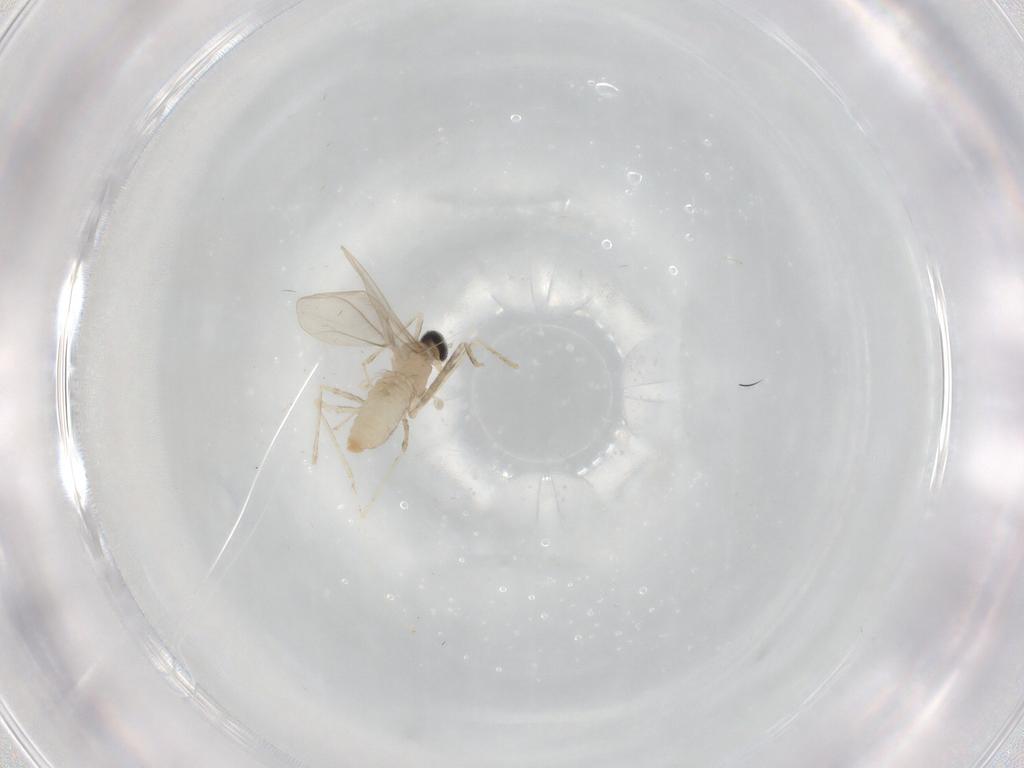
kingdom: Animalia
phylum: Arthropoda
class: Insecta
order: Diptera
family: Cecidomyiidae
